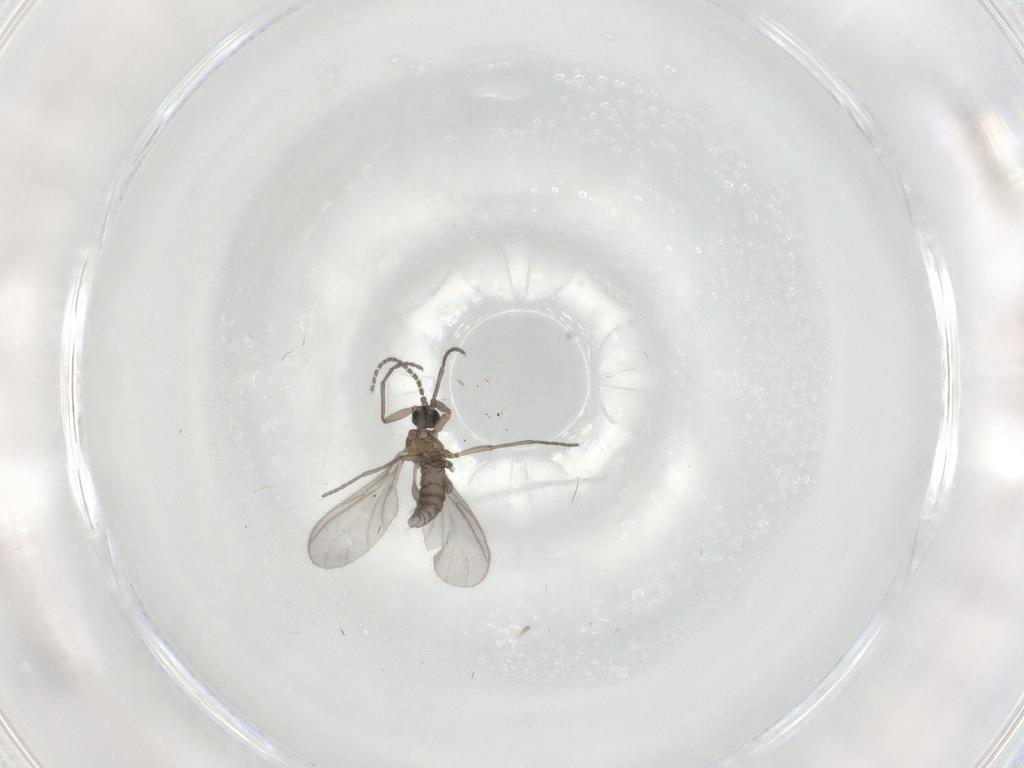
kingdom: Animalia
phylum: Arthropoda
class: Insecta
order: Diptera
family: Sciaridae
